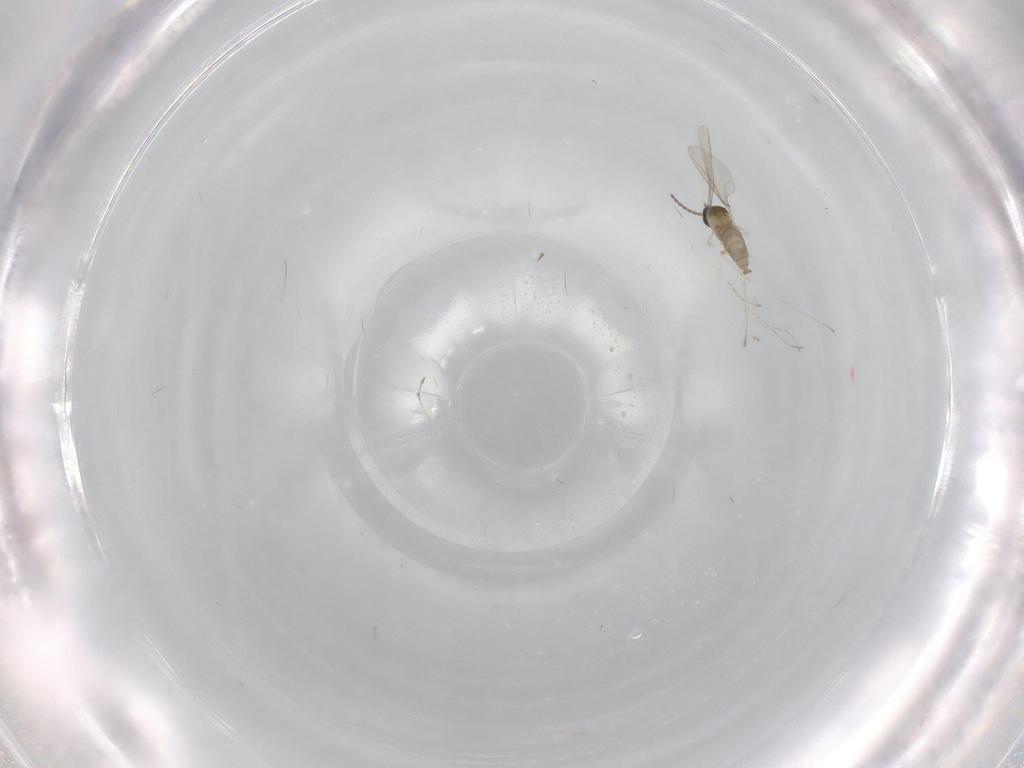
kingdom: Animalia
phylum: Arthropoda
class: Insecta
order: Diptera
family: Cecidomyiidae
